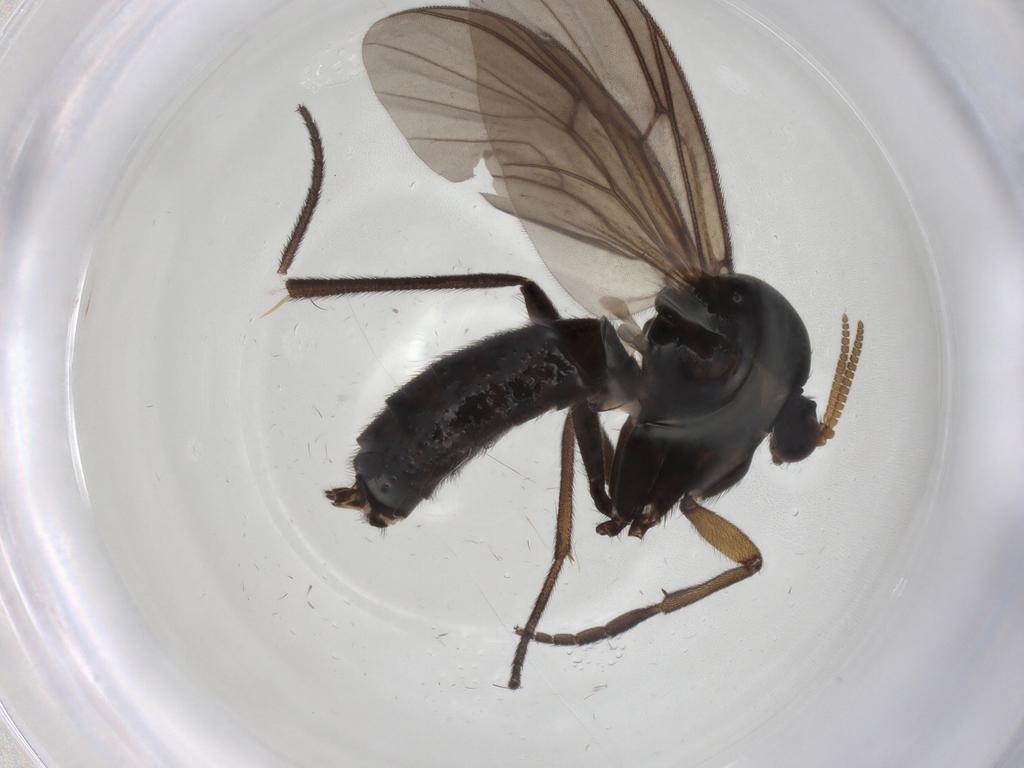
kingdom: Animalia
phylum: Arthropoda
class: Insecta
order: Diptera
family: Mycetophilidae
